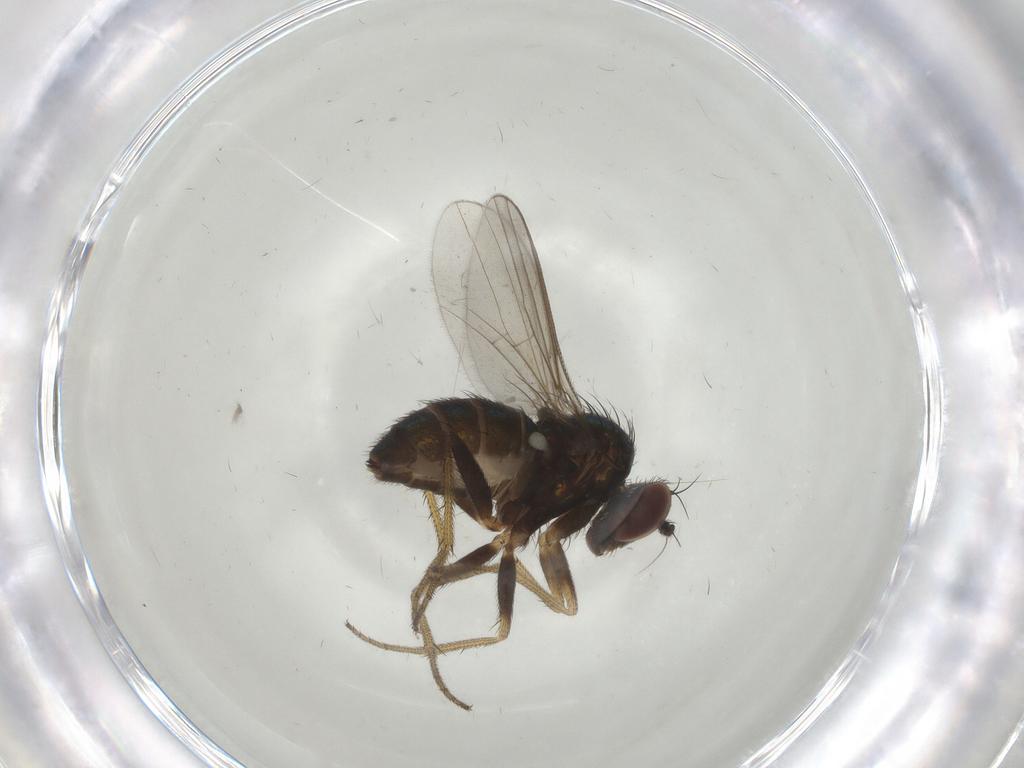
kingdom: Animalia
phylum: Arthropoda
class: Insecta
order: Diptera
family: Dolichopodidae
